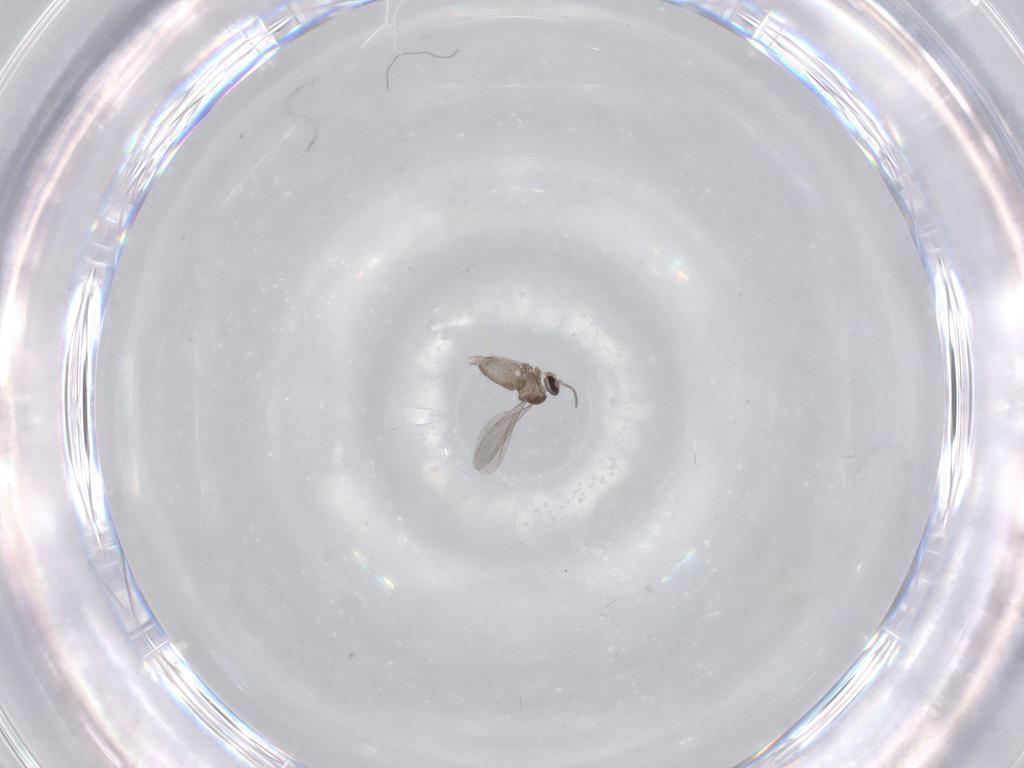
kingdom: Animalia
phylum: Arthropoda
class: Insecta
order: Diptera
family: Cecidomyiidae
